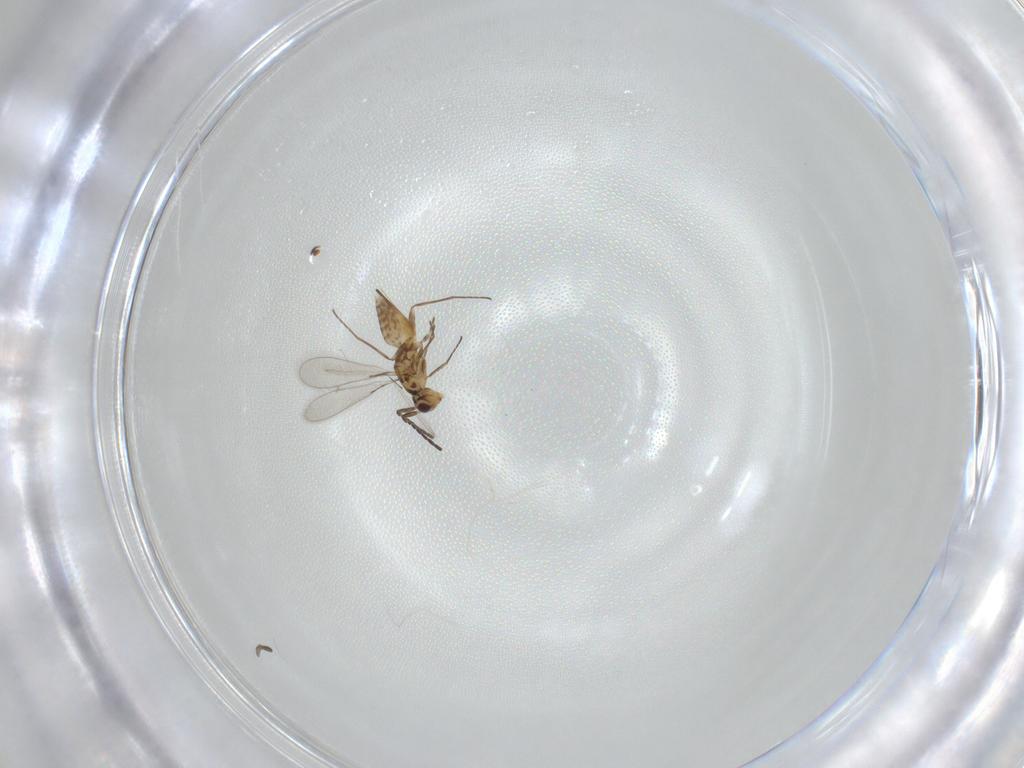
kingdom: Animalia
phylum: Arthropoda
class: Insecta
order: Hymenoptera
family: Mymaridae
